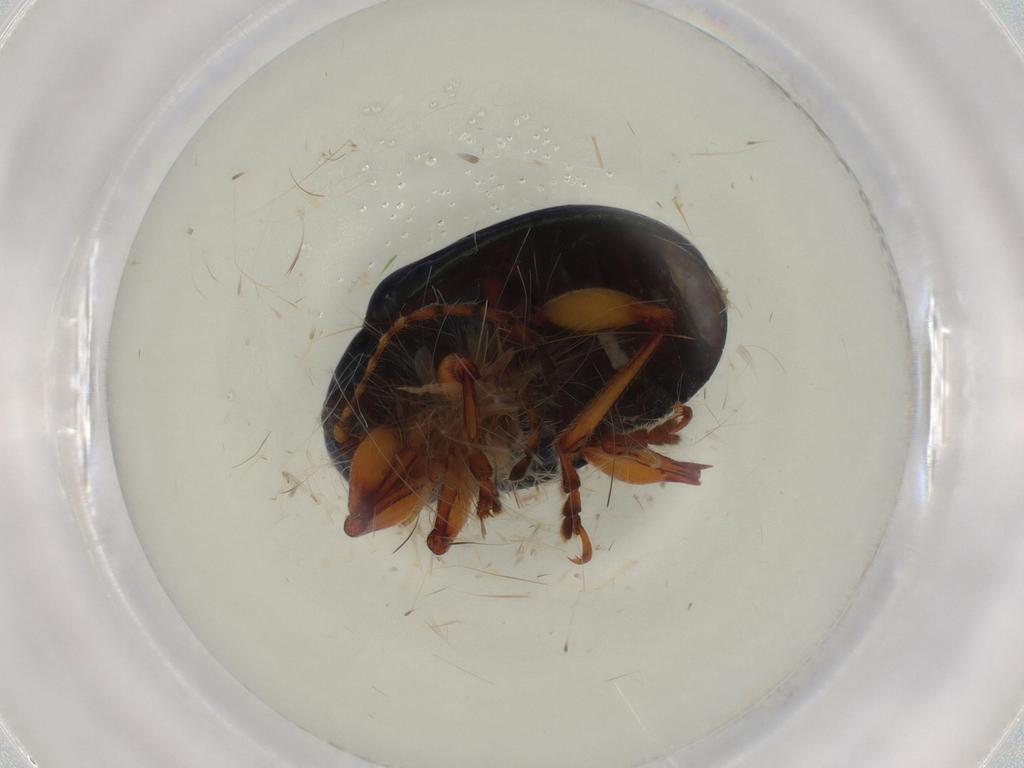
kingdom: Animalia
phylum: Arthropoda
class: Insecta
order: Coleoptera
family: Chrysomelidae
